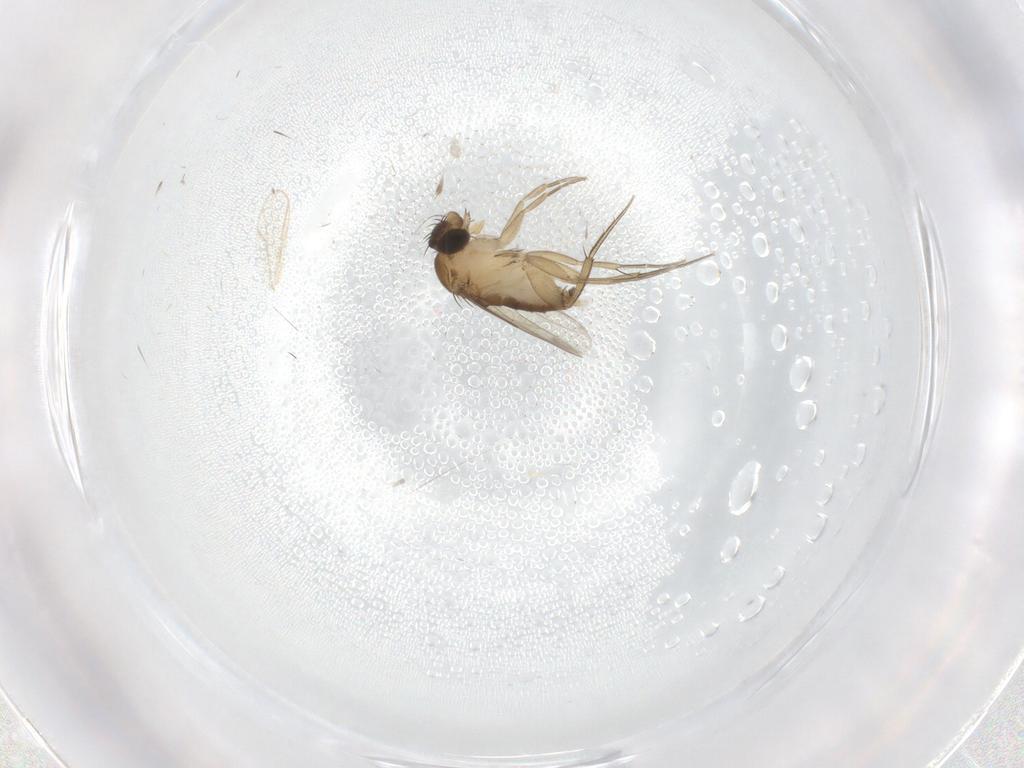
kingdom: Animalia
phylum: Arthropoda
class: Insecta
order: Diptera
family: Phoridae
